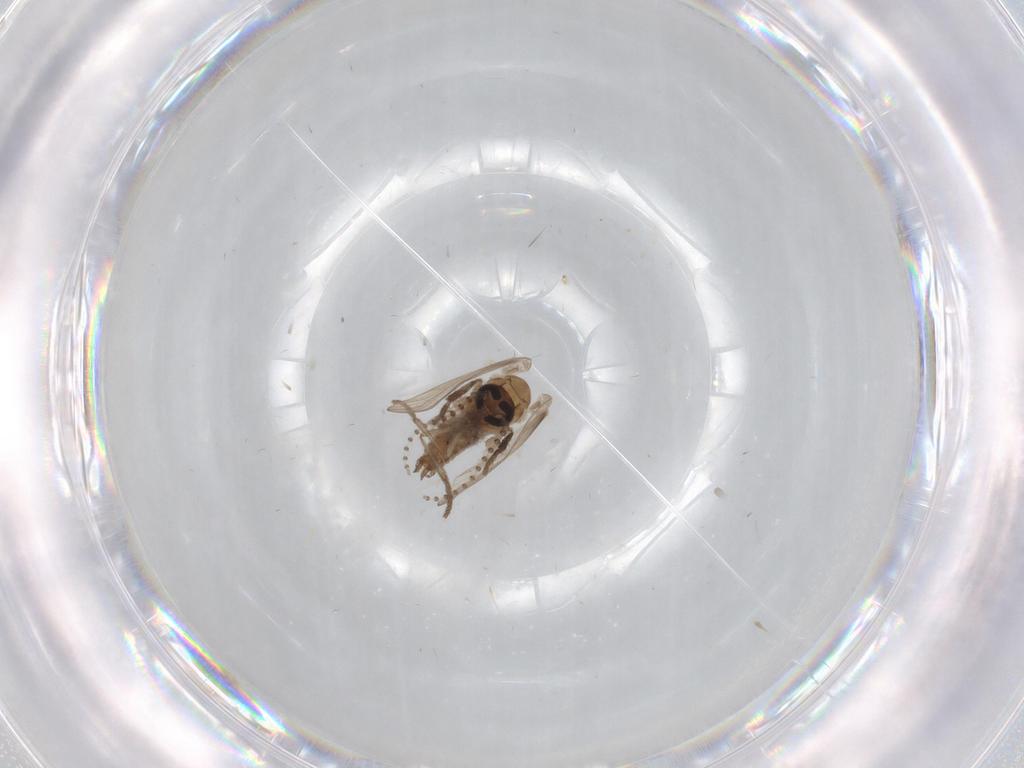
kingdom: Animalia
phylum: Arthropoda
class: Insecta
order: Diptera
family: Psychodidae
